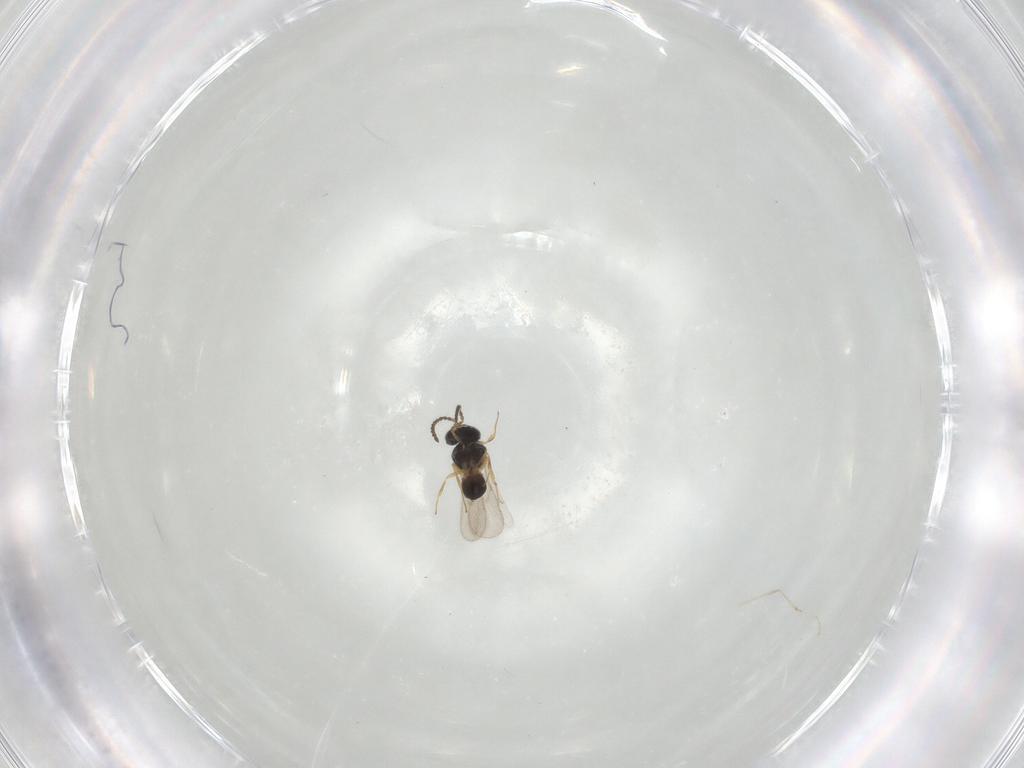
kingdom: Animalia
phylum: Arthropoda
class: Insecta
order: Hymenoptera
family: Scelionidae
